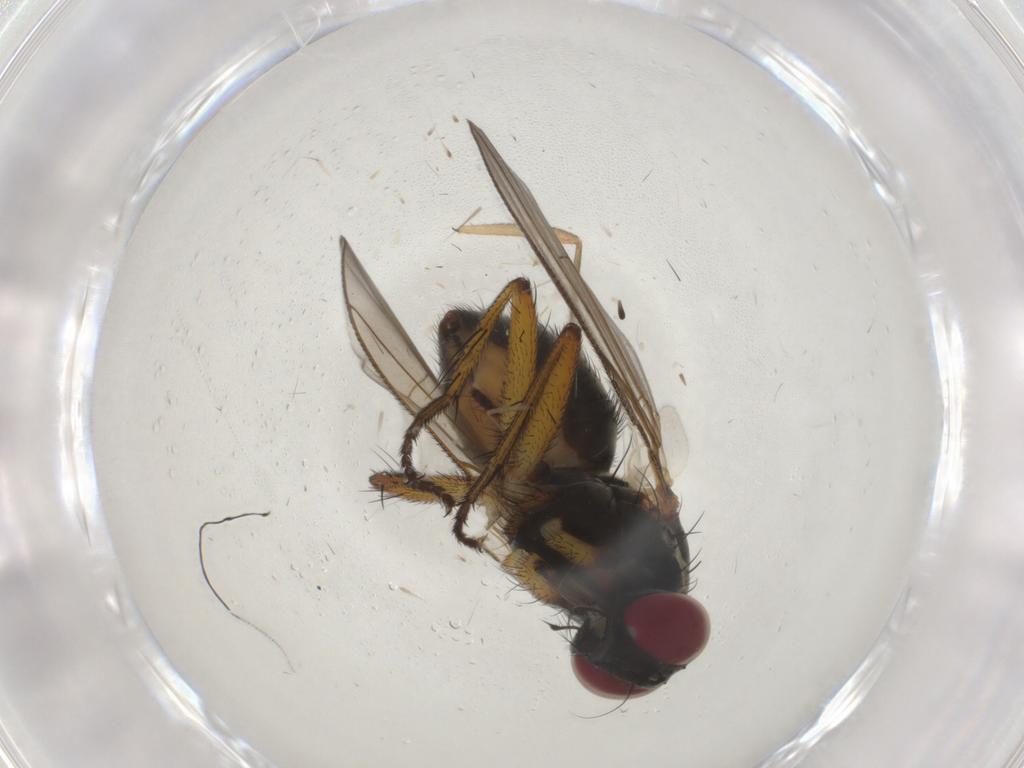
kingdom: Animalia
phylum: Arthropoda
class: Insecta
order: Diptera
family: Muscidae
